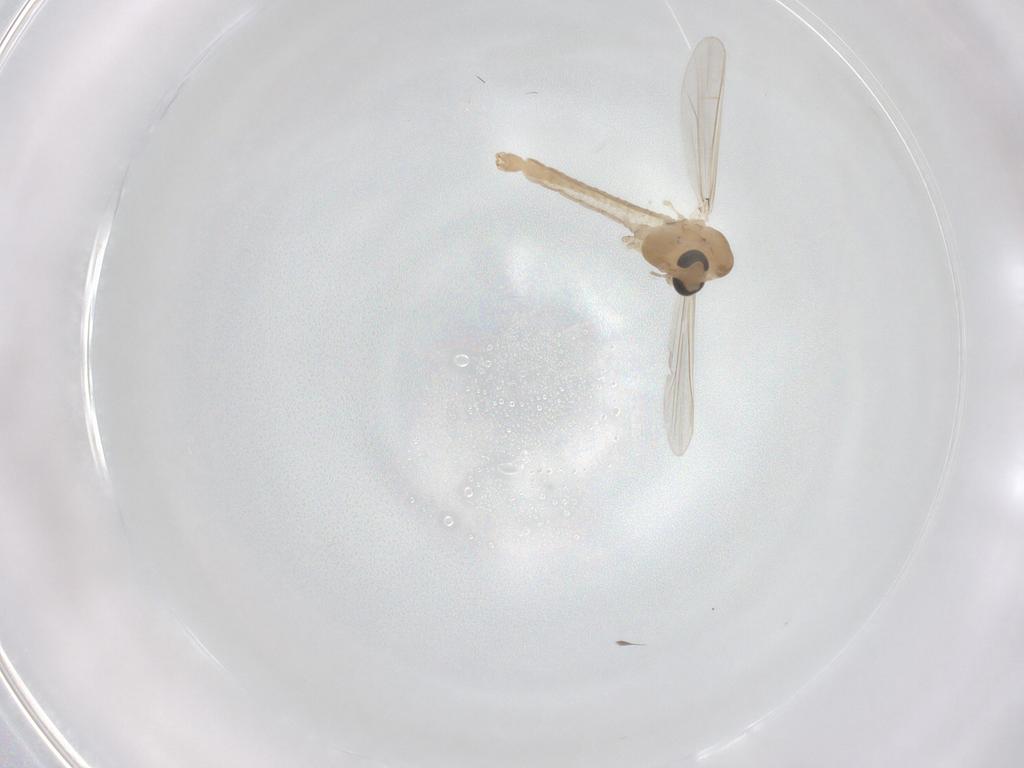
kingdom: Animalia
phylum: Arthropoda
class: Insecta
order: Diptera
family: Chironomidae
